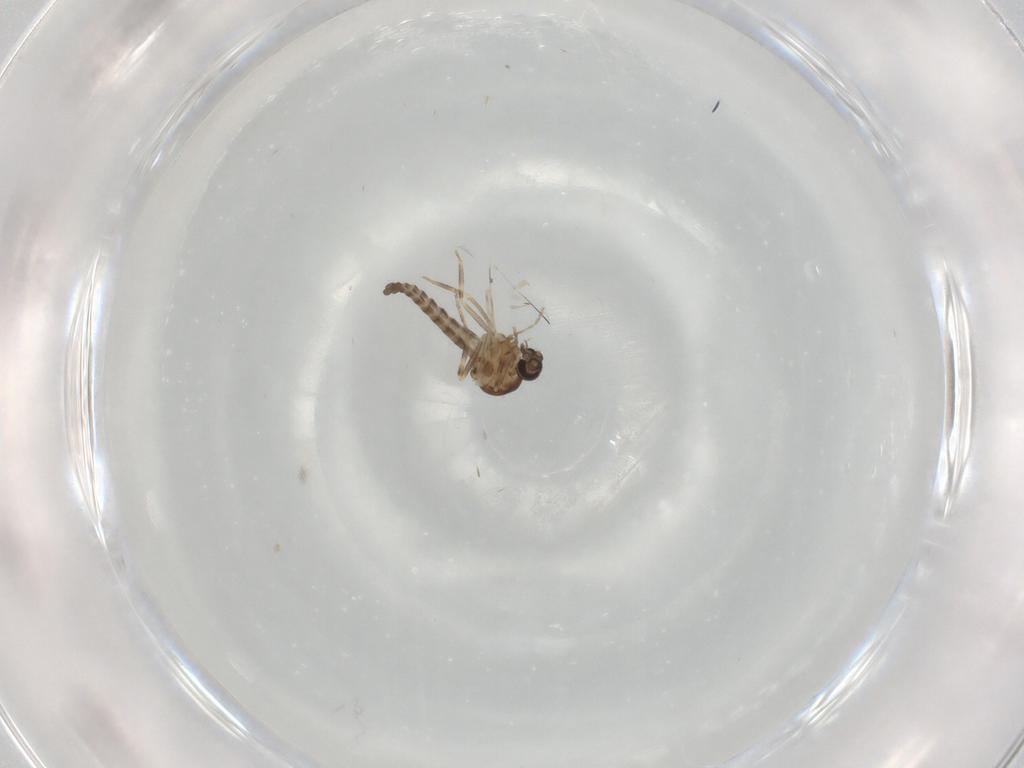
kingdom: Animalia
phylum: Arthropoda
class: Insecta
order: Diptera
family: Ceratopogonidae
